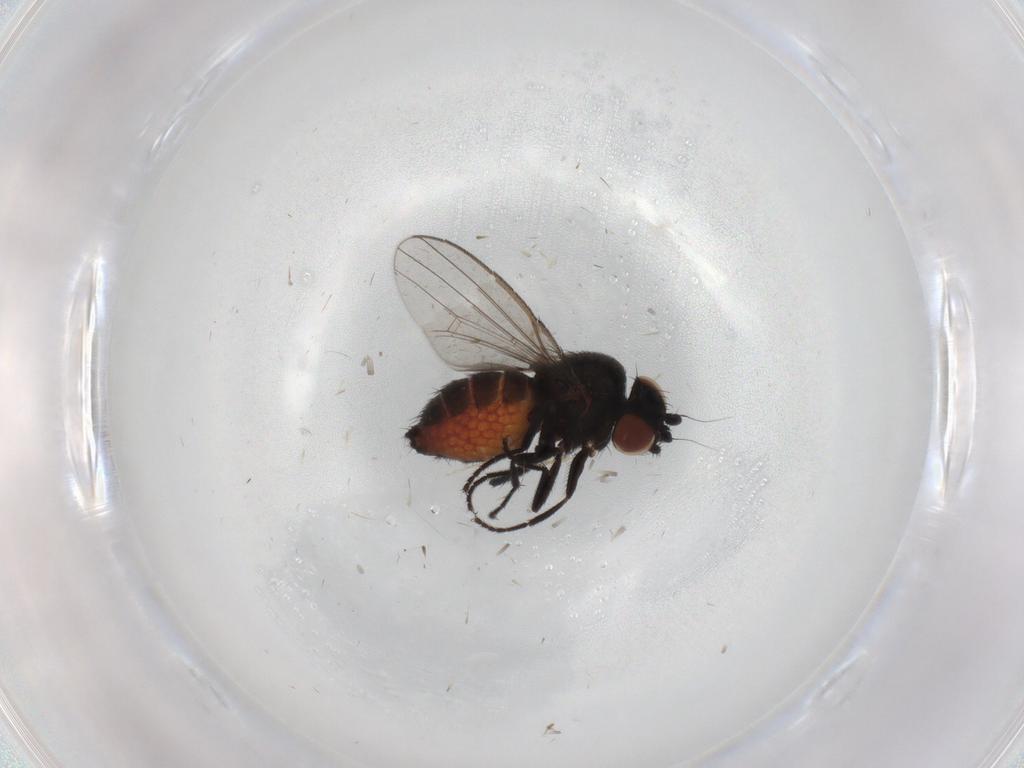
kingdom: Animalia
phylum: Arthropoda
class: Insecta
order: Diptera
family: Milichiidae
